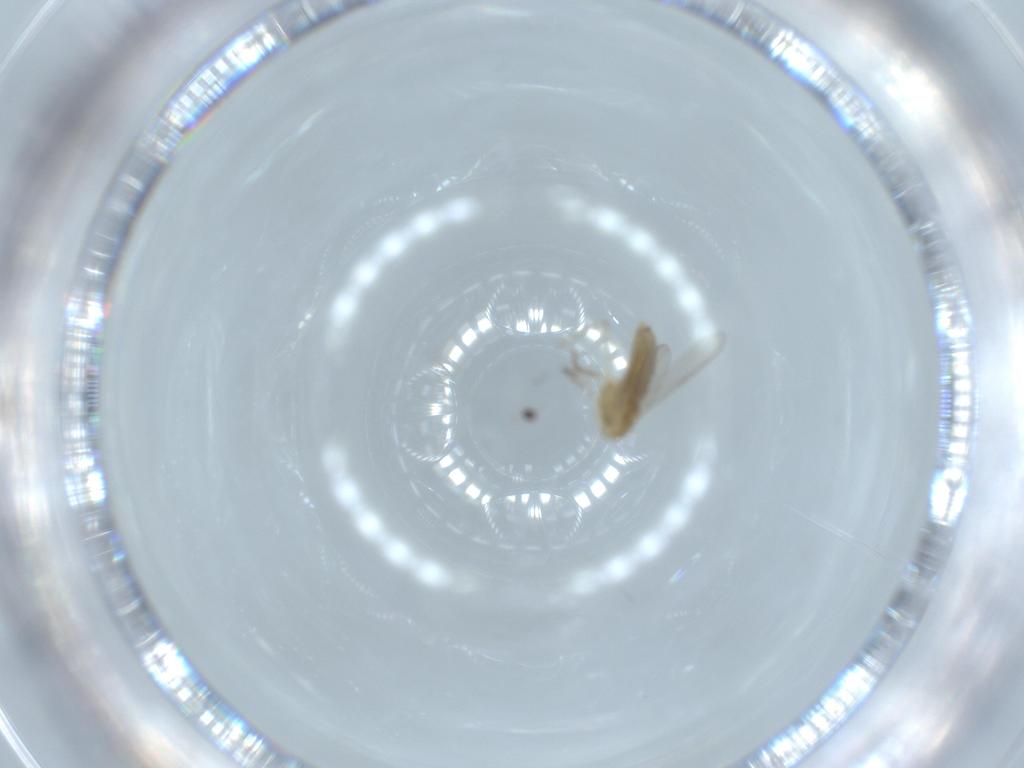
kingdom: Animalia
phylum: Arthropoda
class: Insecta
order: Diptera
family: Chironomidae
